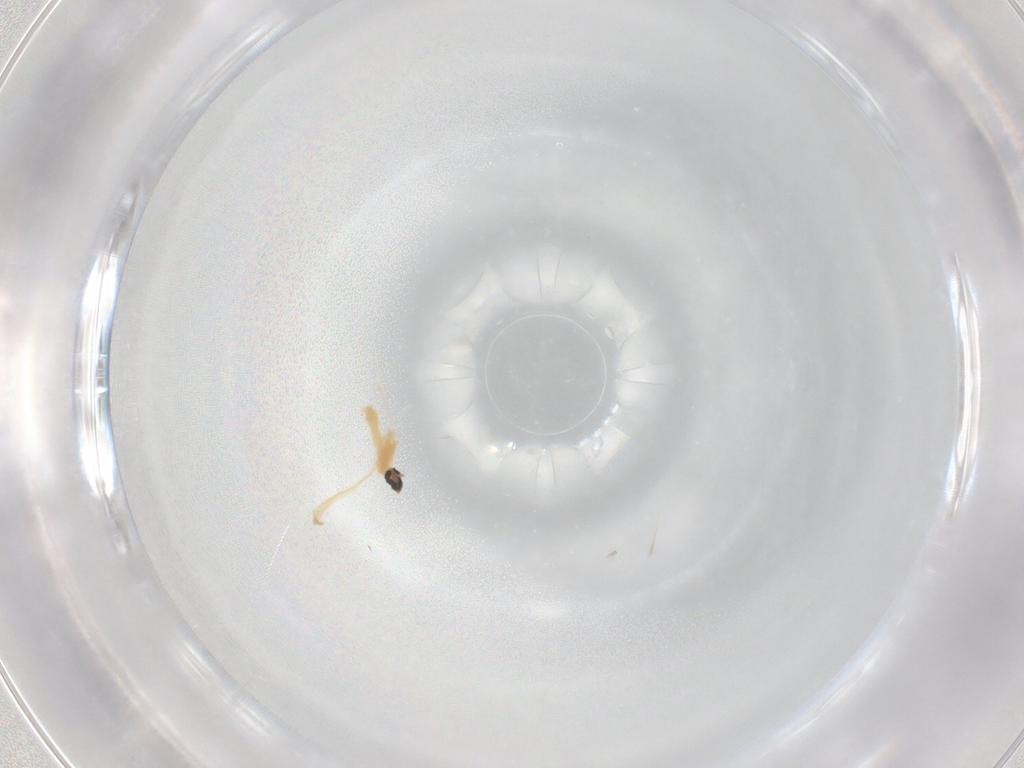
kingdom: Animalia
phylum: Arthropoda
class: Insecta
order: Diptera
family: Cecidomyiidae
